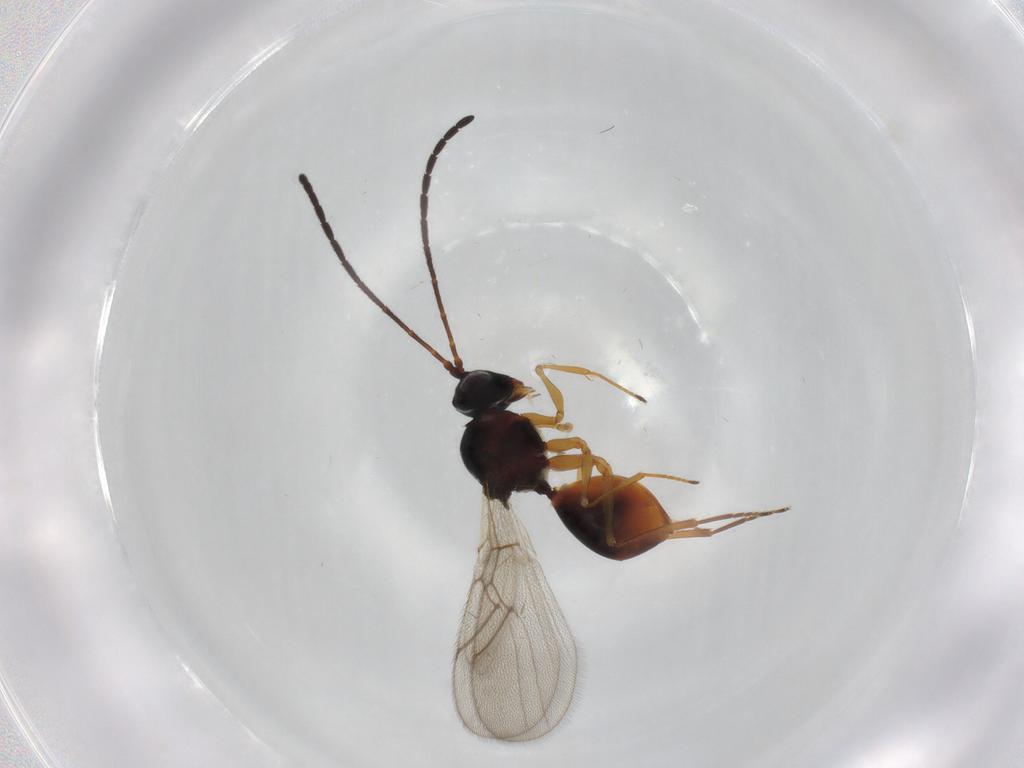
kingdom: Animalia
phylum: Arthropoda
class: Insecta
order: Hymenoptera
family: Figitidae
